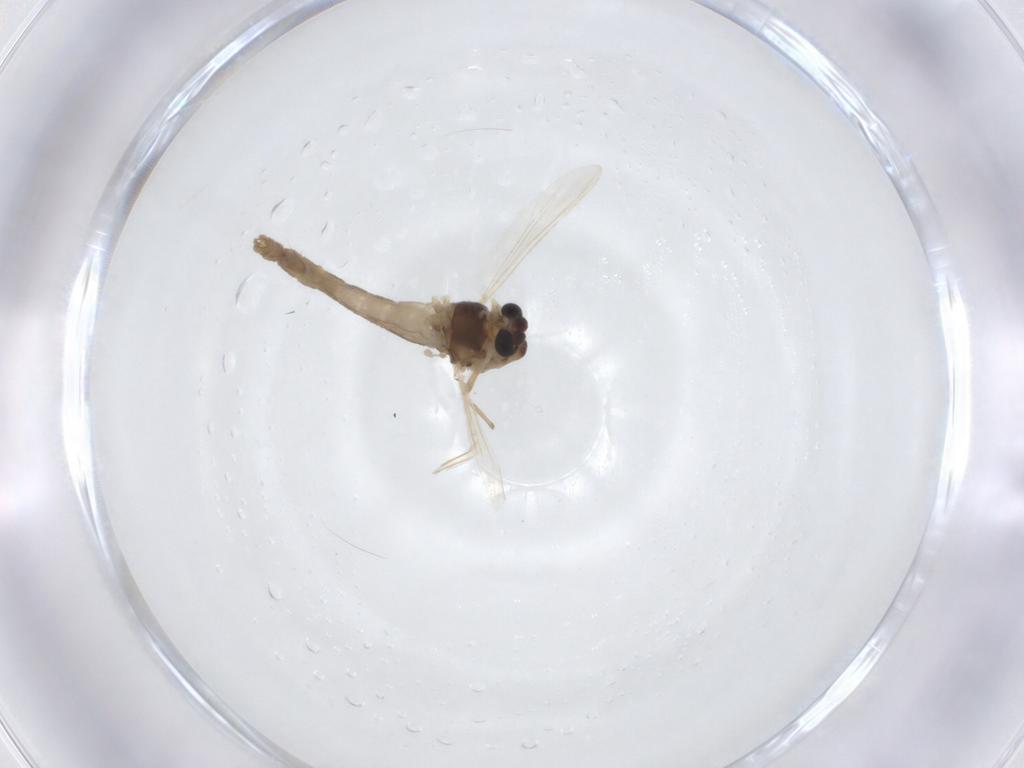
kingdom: Animalia
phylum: Arthropoda
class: Insecta
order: Diptera
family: Chironomidae
